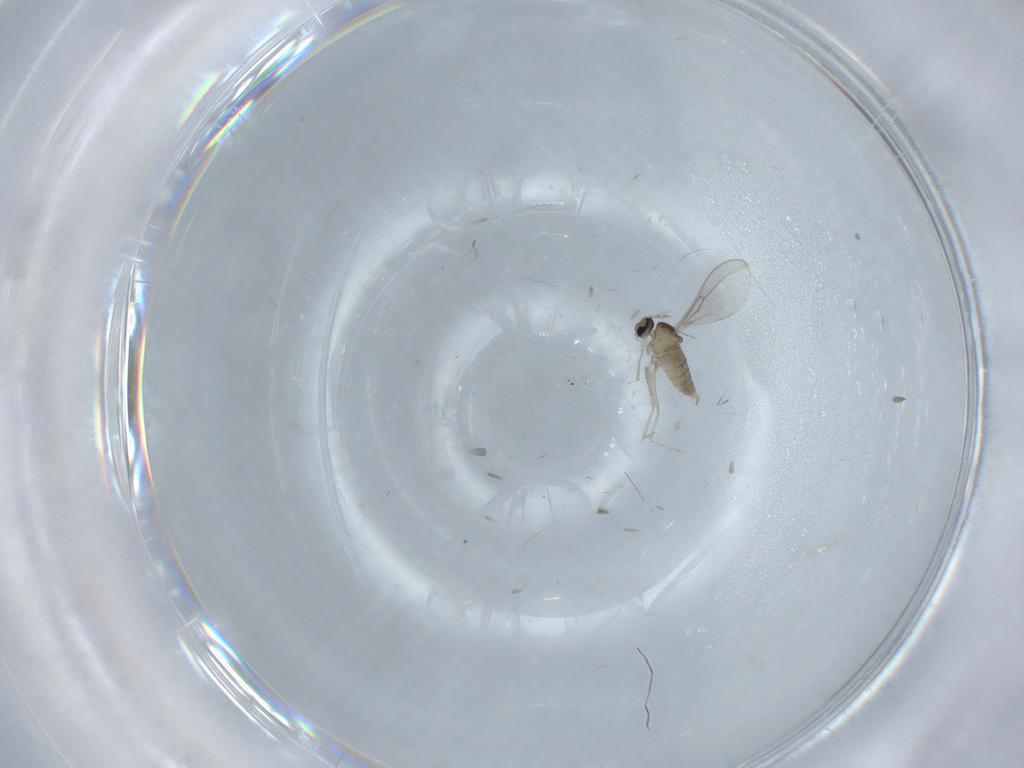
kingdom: Animalia
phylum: Arthropoda
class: Insecta
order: Diptera
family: Cecidomyiidae
